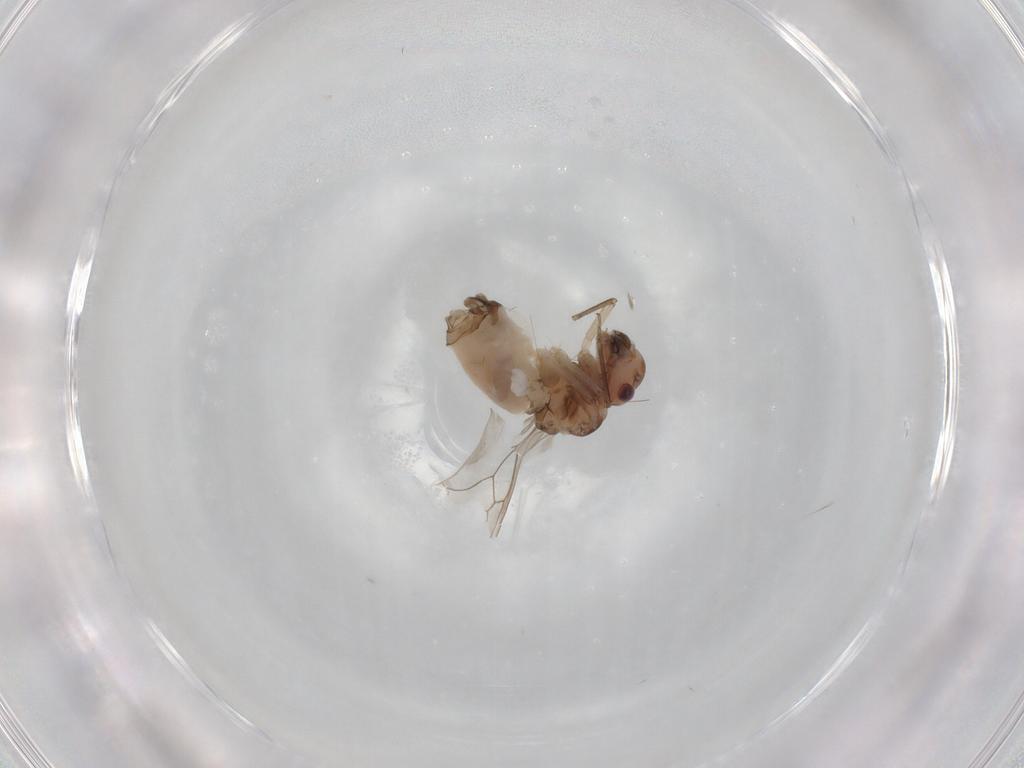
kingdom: Animalia
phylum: Arthropoda
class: Insecta
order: Psocodea
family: Peripsocidae
